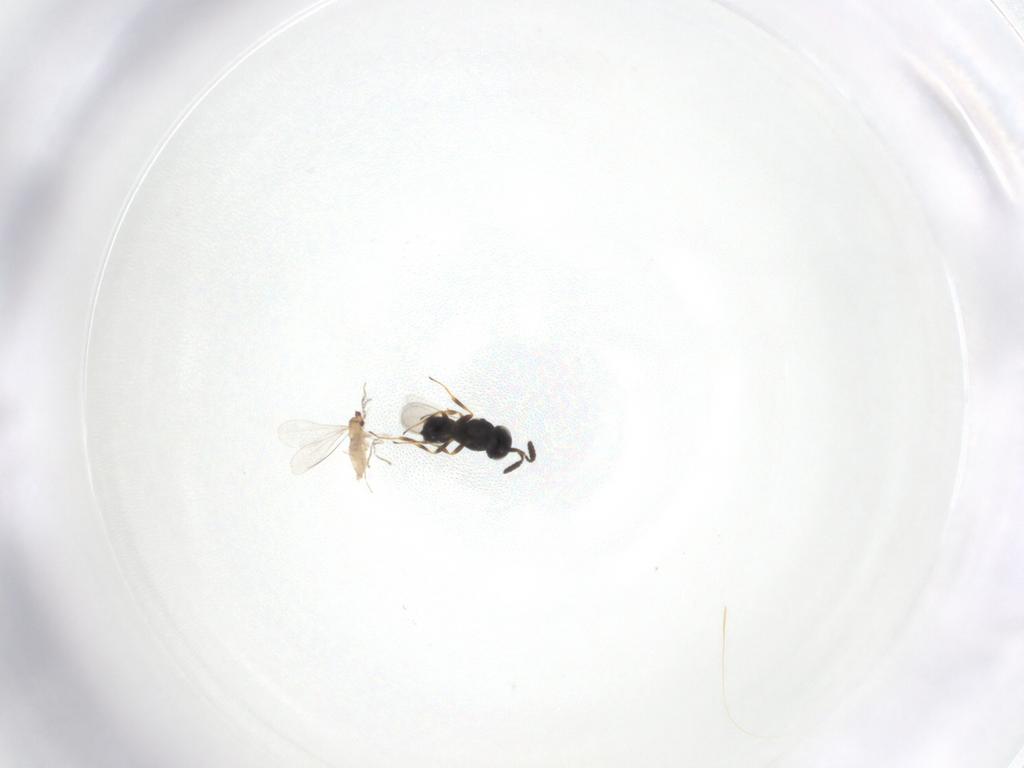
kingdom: Animalia
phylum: Arthropoda
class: Insecta
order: Diptera
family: Cecidomyiidae
